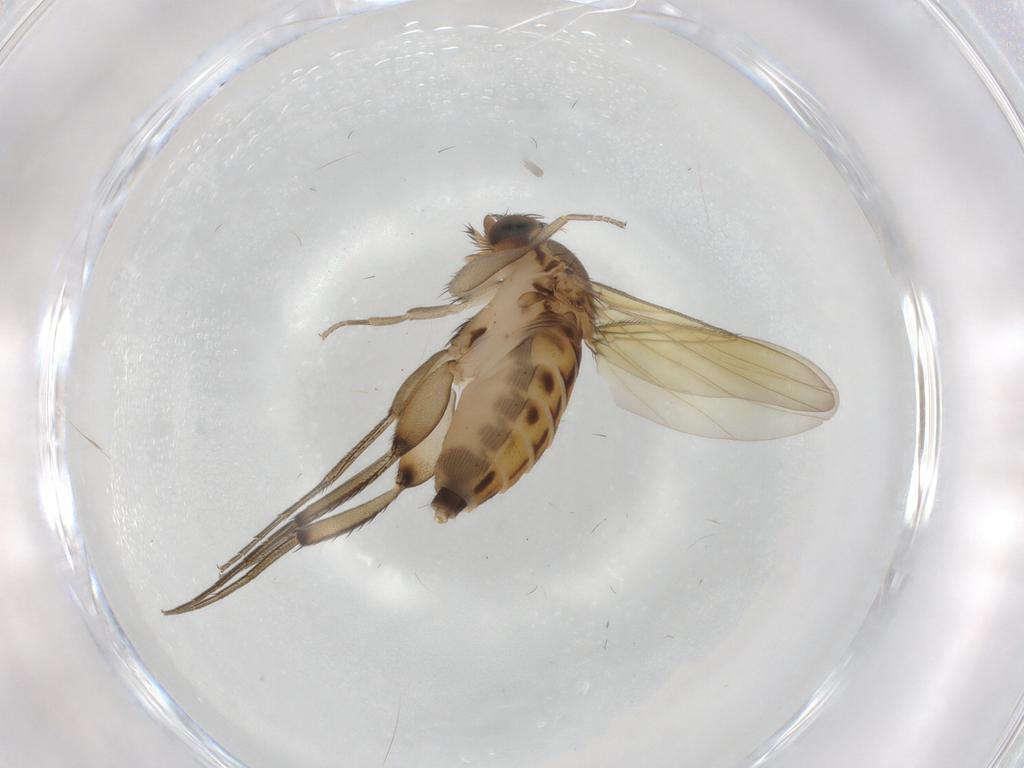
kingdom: Animalia
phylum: Arthropoda
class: Insecta
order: Diptera
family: Phoridae
